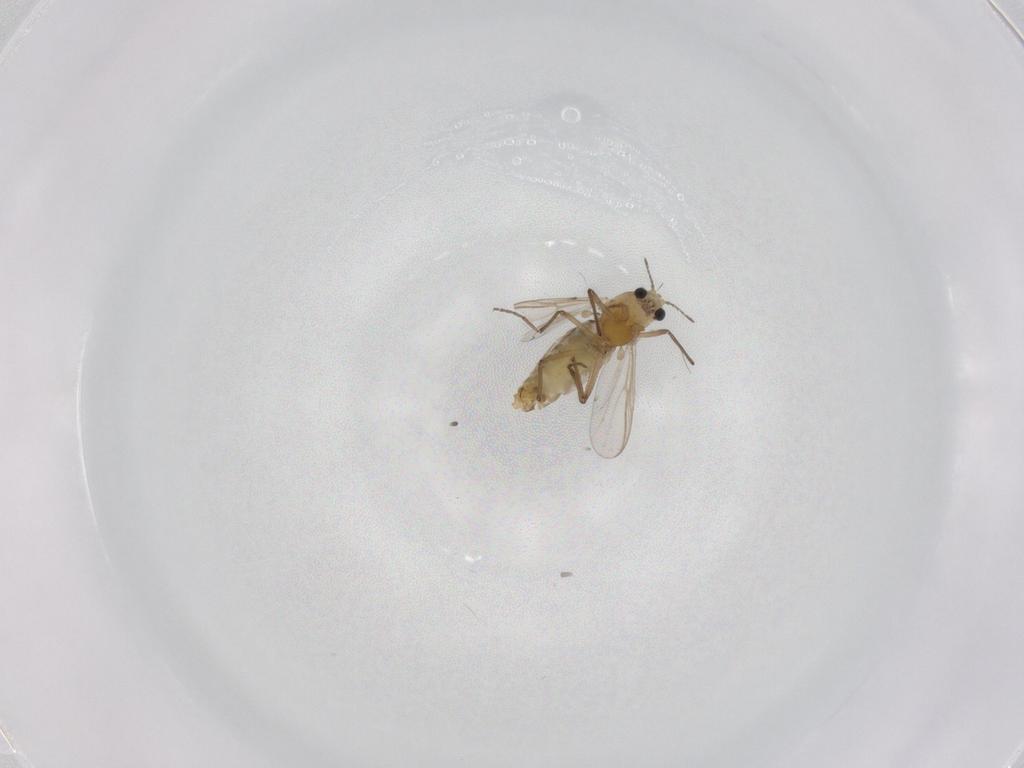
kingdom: Animalia
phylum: Arthropoda
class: Insecta
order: Diptera
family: Chironomidae
